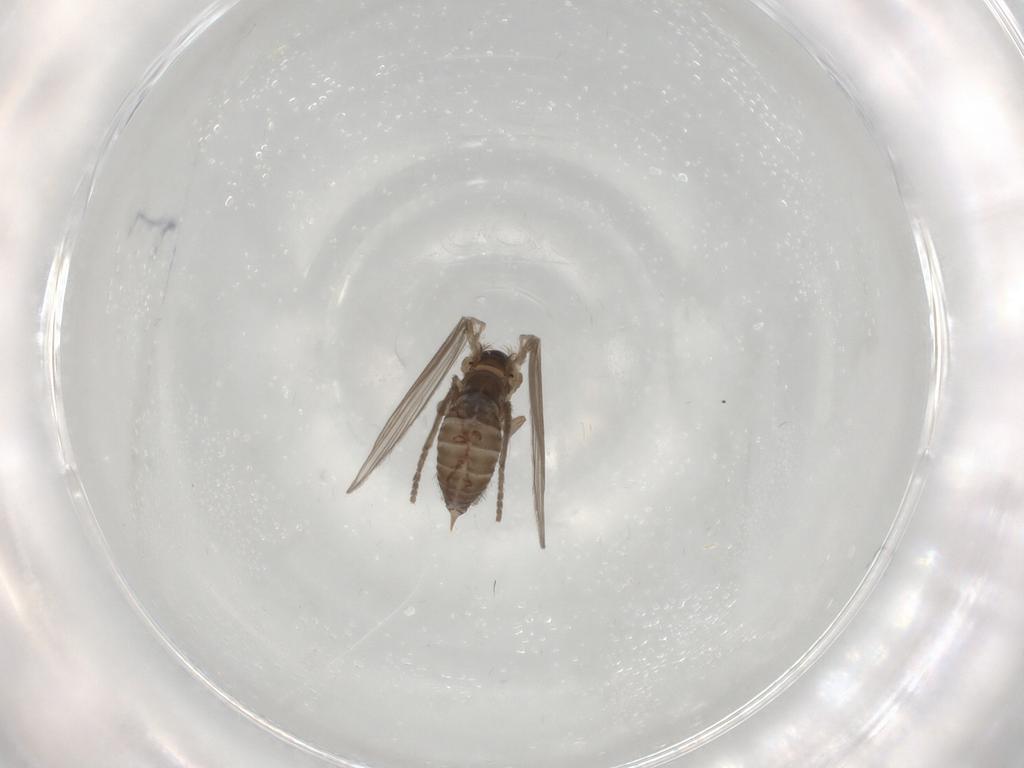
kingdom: Animalia
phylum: Arthropoda
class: Insecta
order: Diptera
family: Psychodidae
